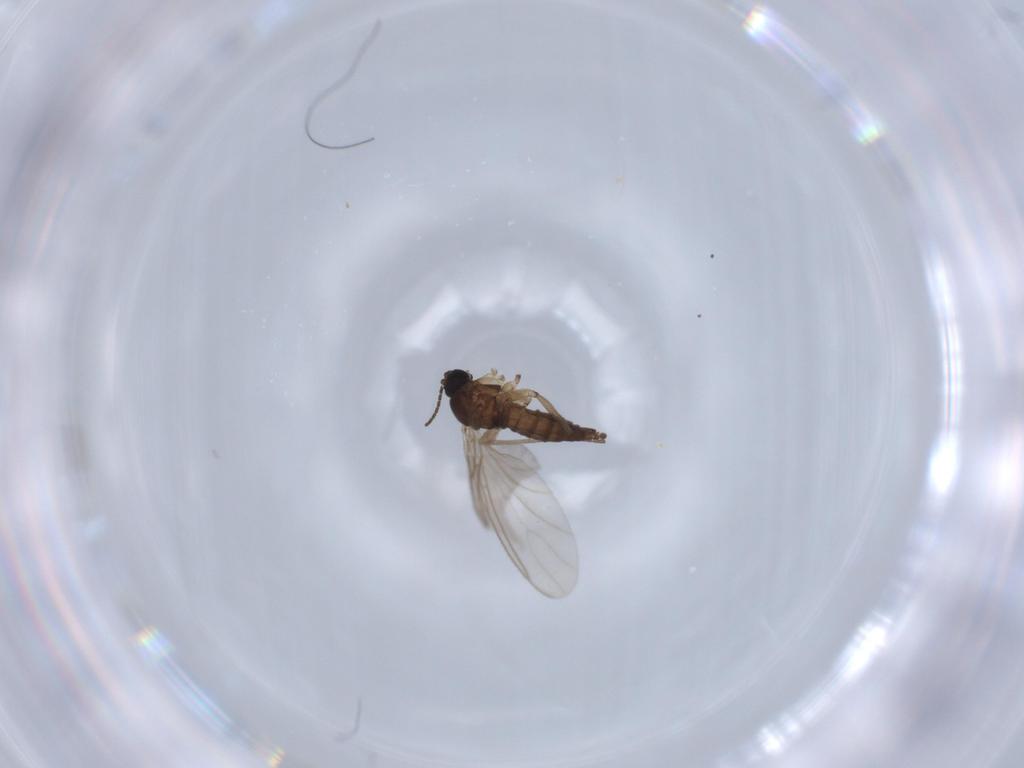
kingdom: Animalia
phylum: Arthropoda
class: Insecta
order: Diptera
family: Sciaridae
